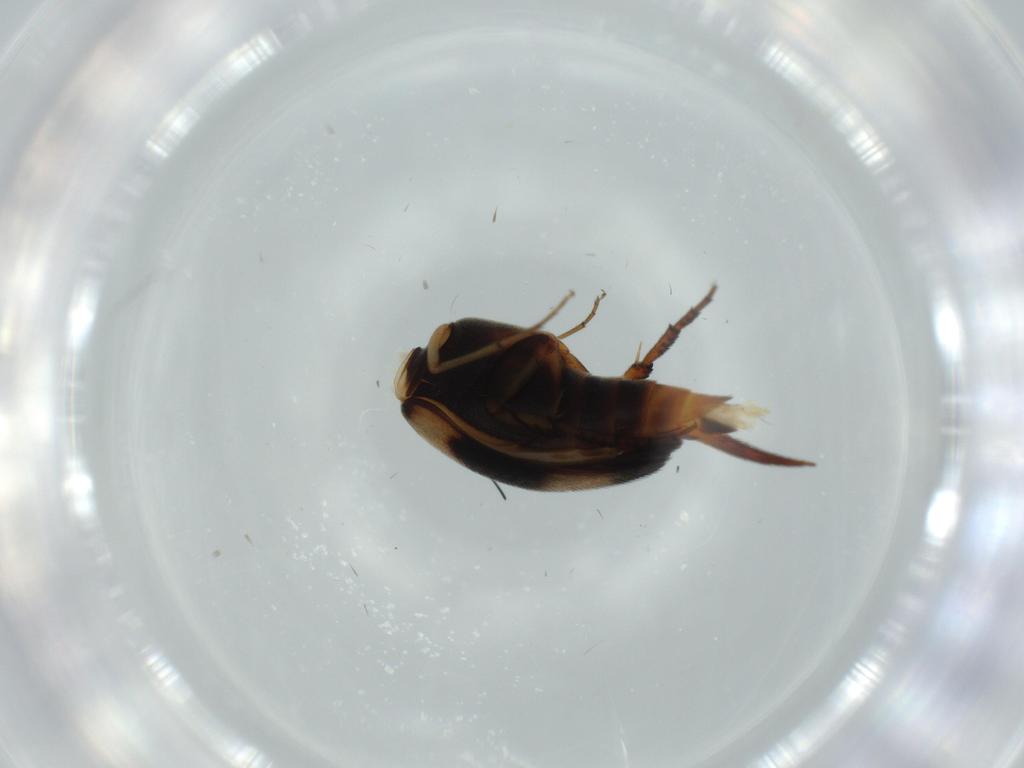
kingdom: Animalia
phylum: Arthropoda
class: Insecta
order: Coleoptera
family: Mordellidae
